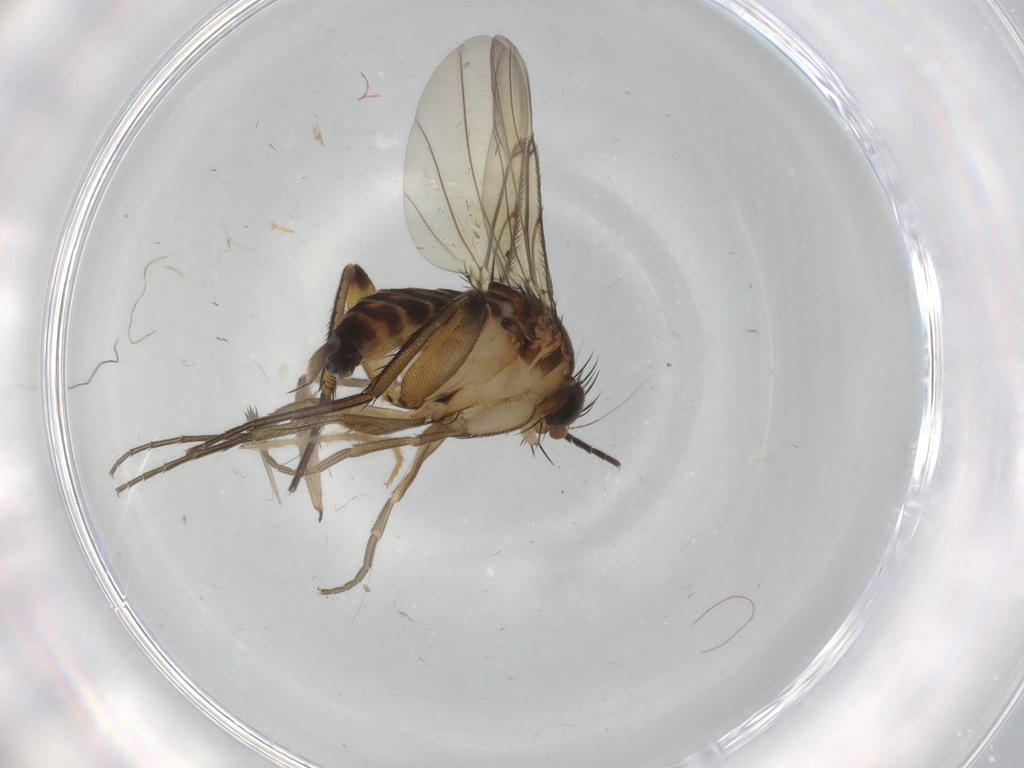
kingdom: Animalia
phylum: Arthropoda
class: Insecta
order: Diptera
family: Phoridae
